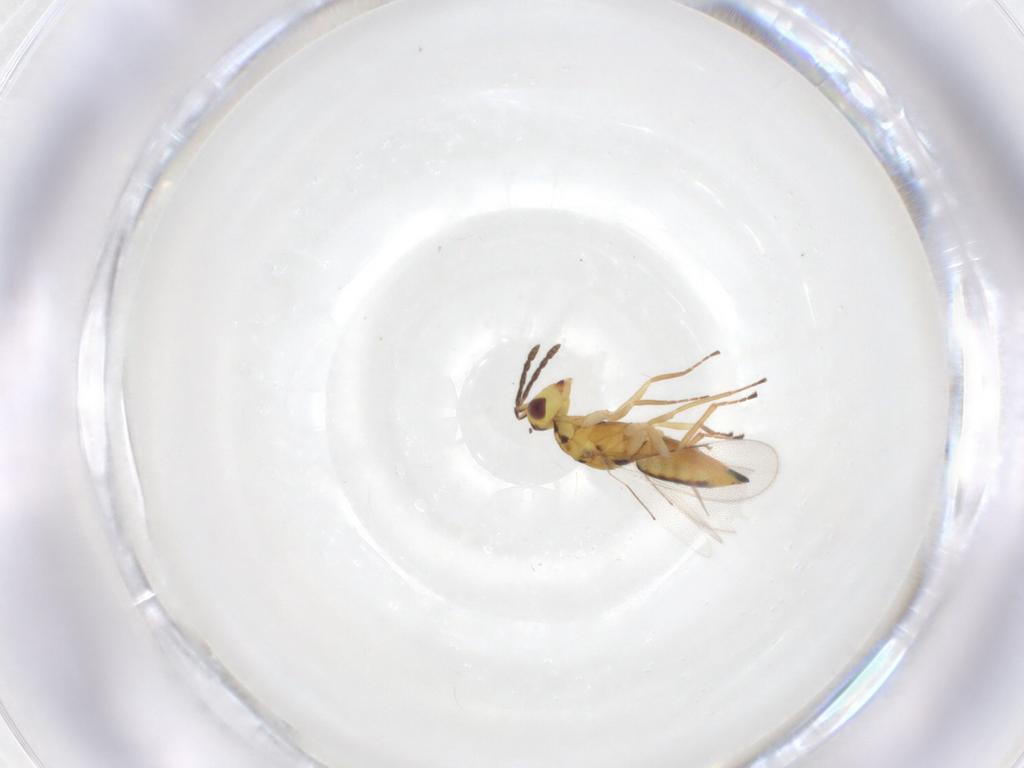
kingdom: Animalia
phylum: Arthropoda
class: Insecta
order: Hymenoptera
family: Eulophidae
